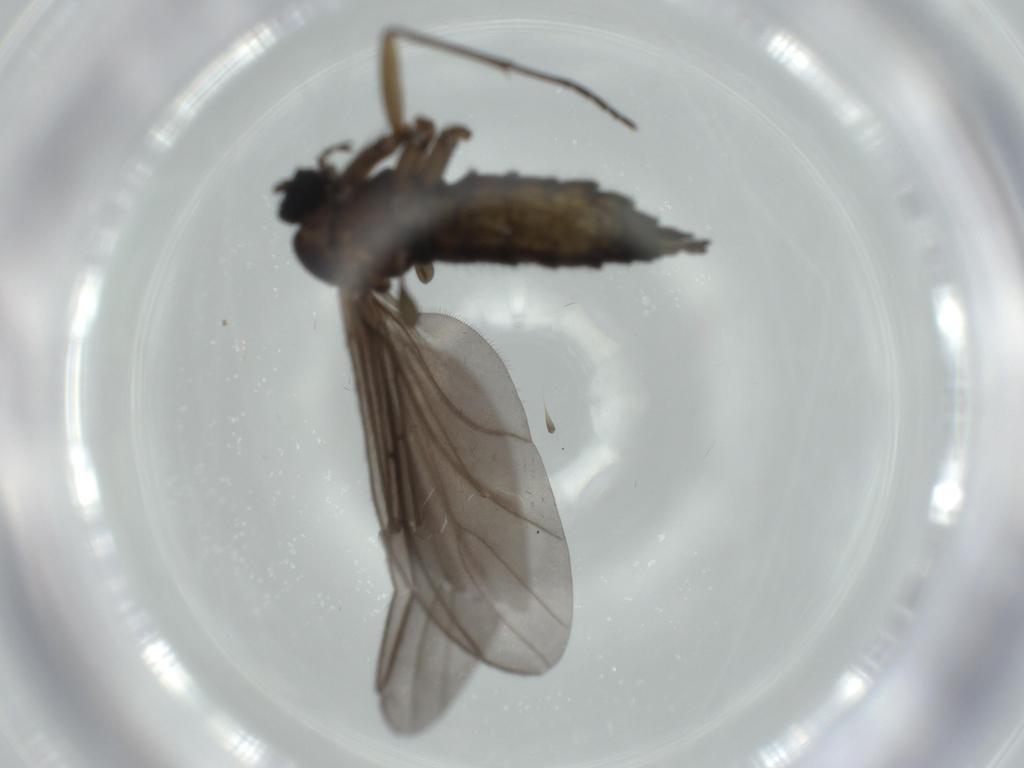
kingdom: Animalia
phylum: Arthropoda
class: Insecta
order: Diptera
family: Sciaridae
